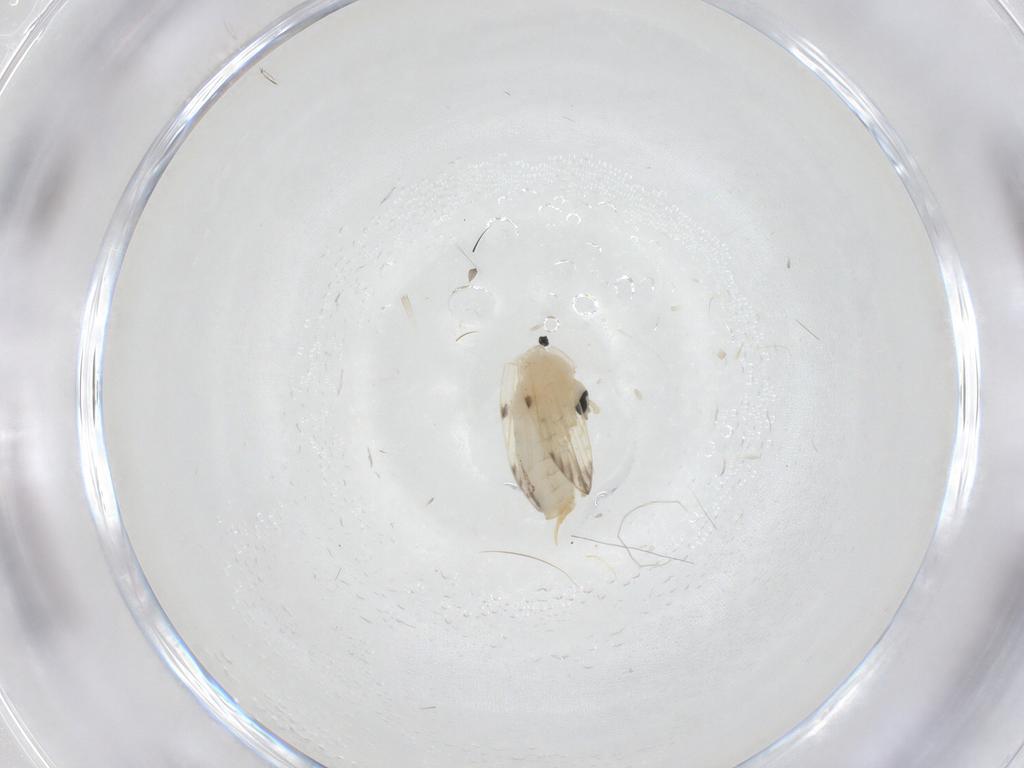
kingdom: Animalia
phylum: Arthropoda
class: Insecta
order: Diptera
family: Psychodidae
